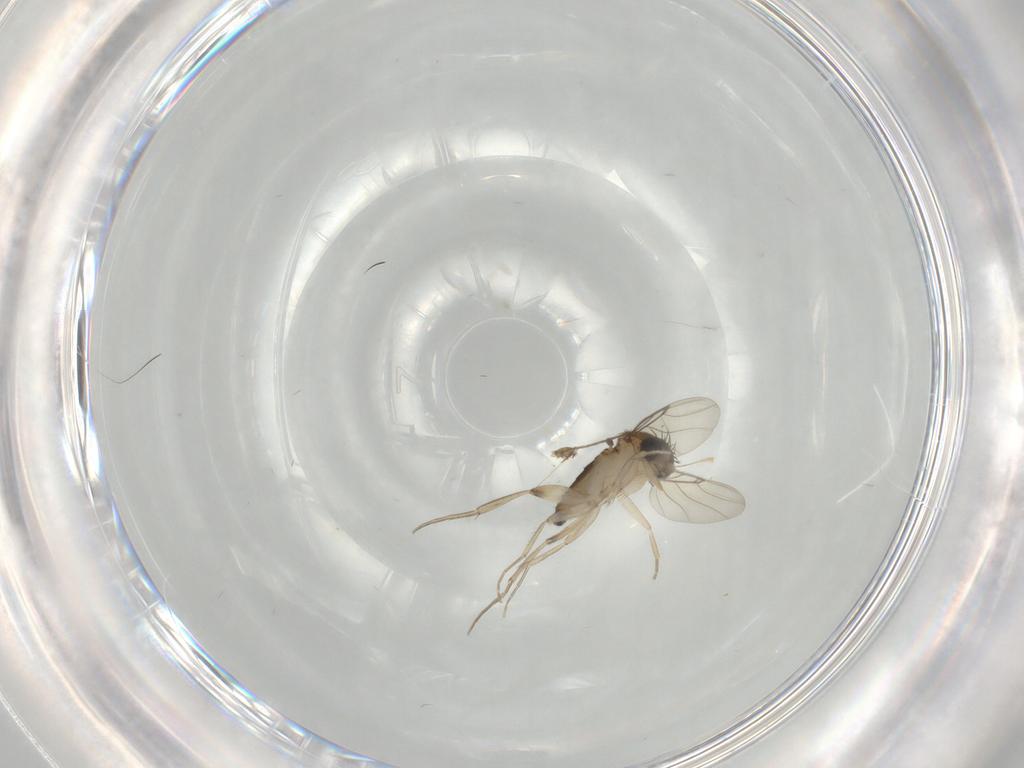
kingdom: Animalia
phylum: Arthropoda
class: Insecta
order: Diptera
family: Phoridae
